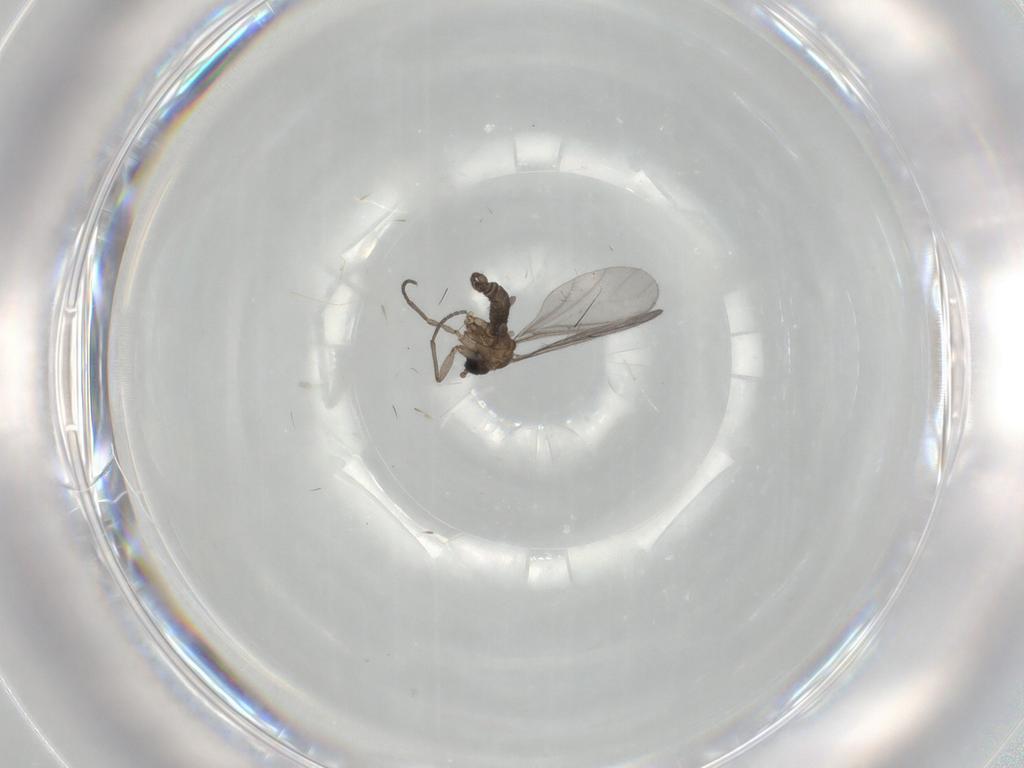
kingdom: Animalia
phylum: Arthropoda
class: Insecta
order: Diptera
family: Sciaridae
